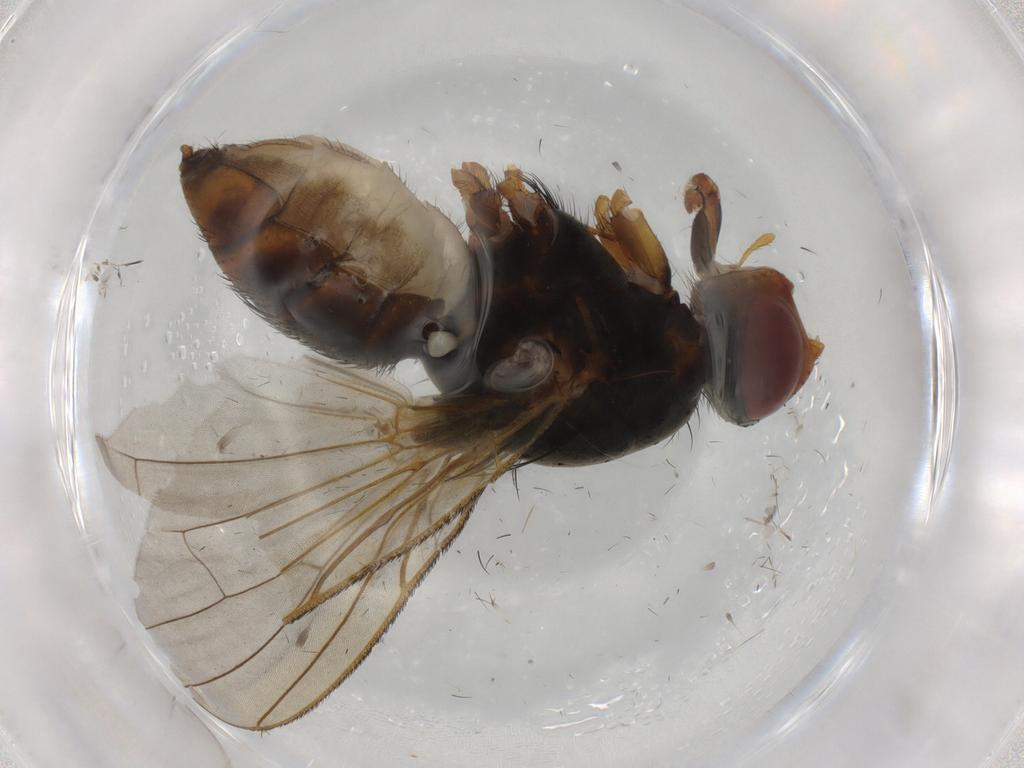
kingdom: Animalia
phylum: Arthropoda
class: Insecta
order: Diptera
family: Anthomyiidae
